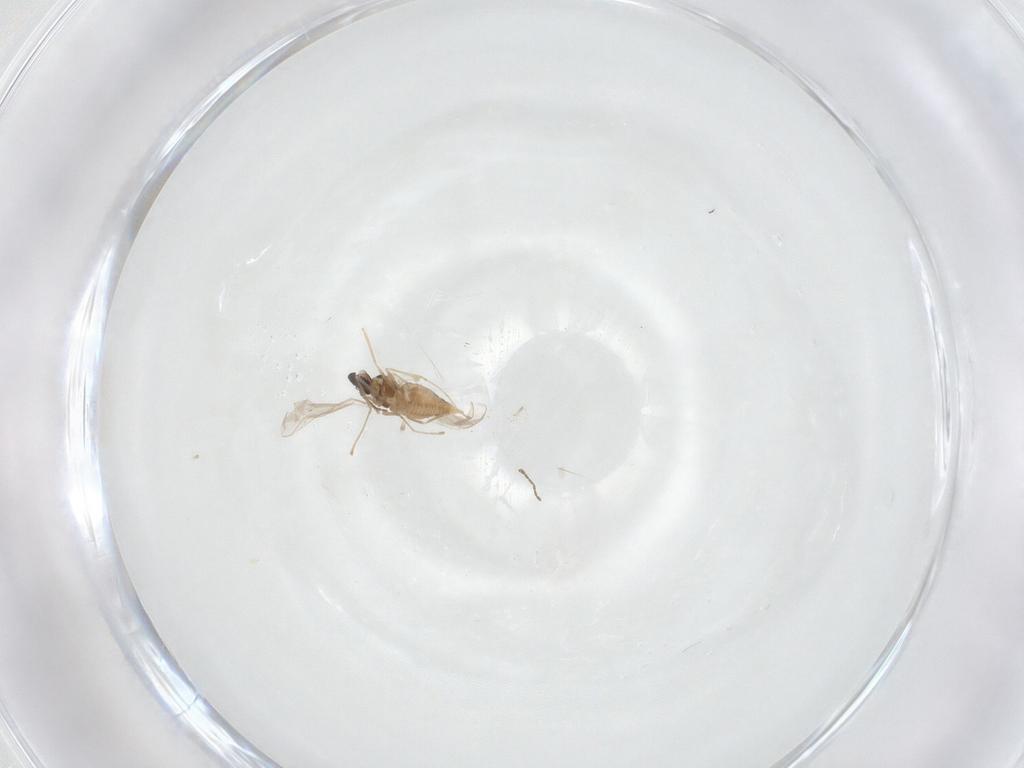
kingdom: Animalia
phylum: Arthropoda
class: Insecta
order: Diptera
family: Cecidomyiidae
